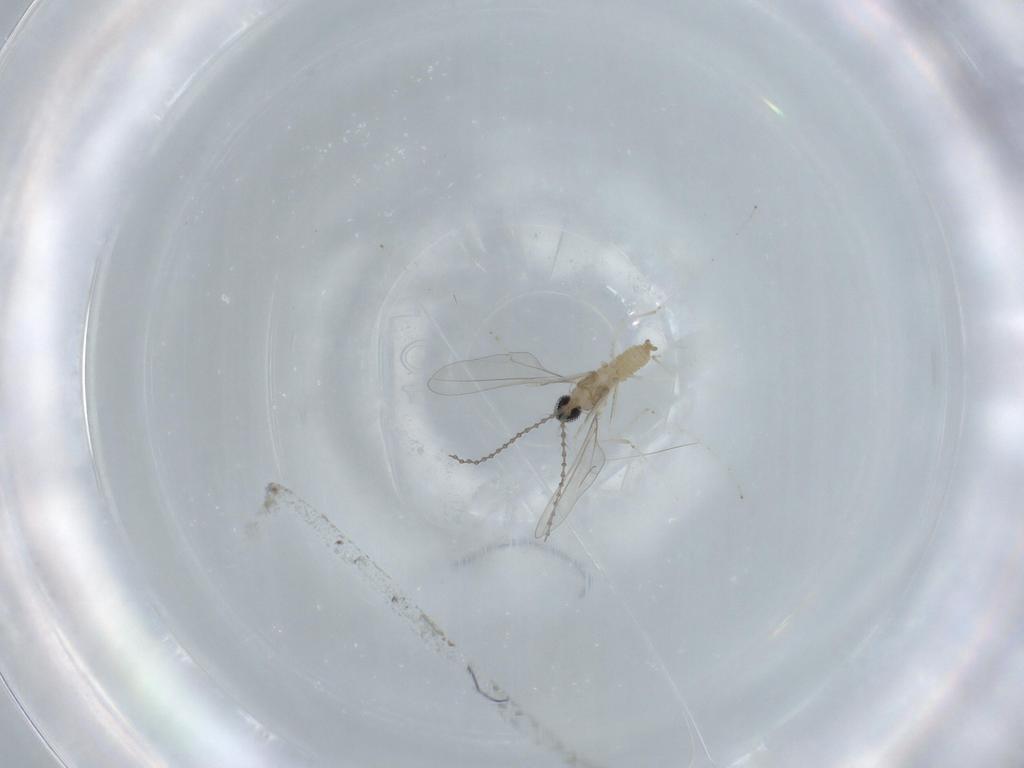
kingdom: Animalia
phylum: Arthropoda
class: Insecta
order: Diptera
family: Cecidomyiidae
